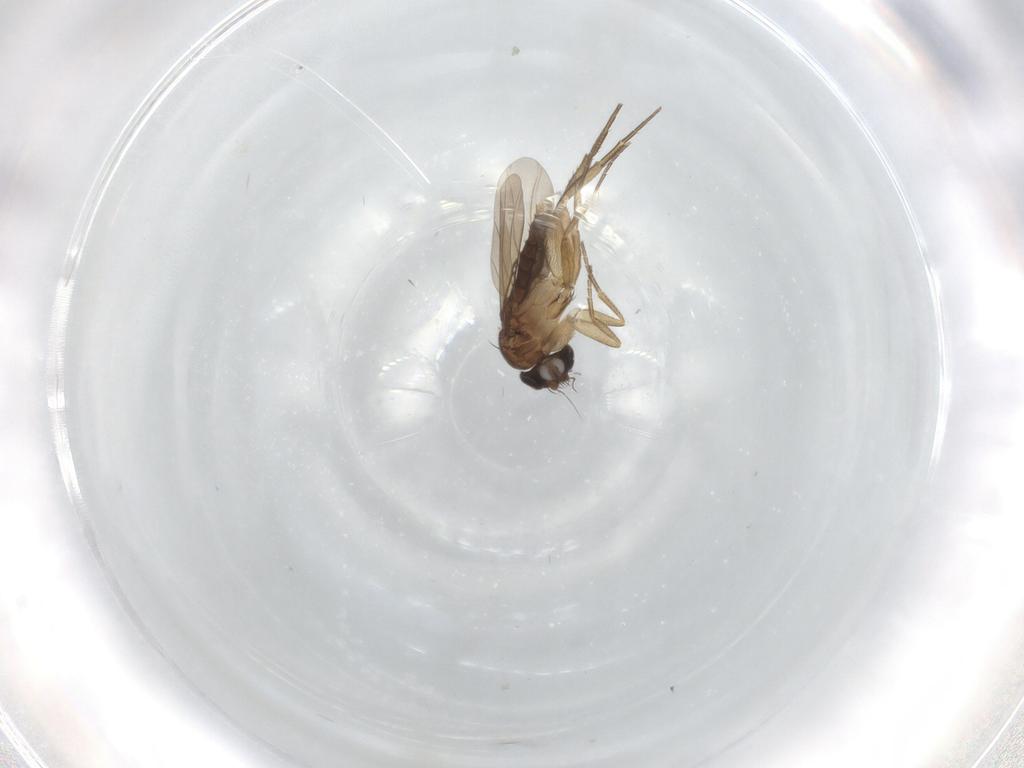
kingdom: Animalia
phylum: Arthropoda
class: Insecta
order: Diptera
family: Phoridae
